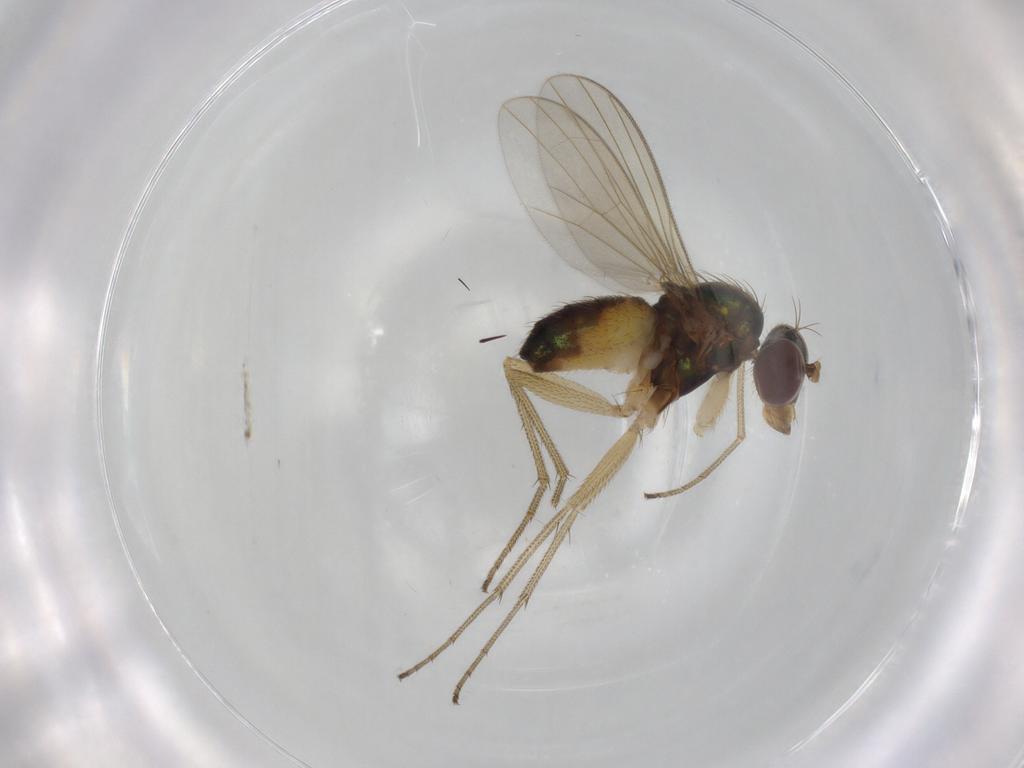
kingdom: Animalia
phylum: Arthropoda
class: Insecta
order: Diptera
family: Dolichopodidae
